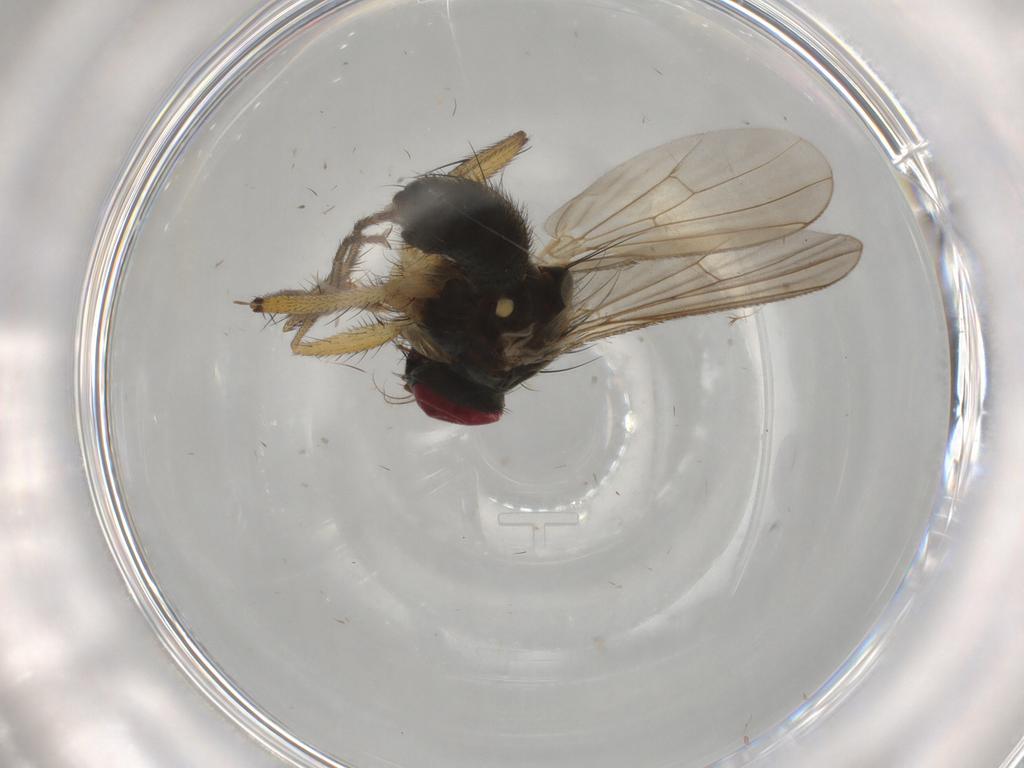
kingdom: Animalia
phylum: Arthropoda
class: Insecta
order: Diptera
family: Muscidae
